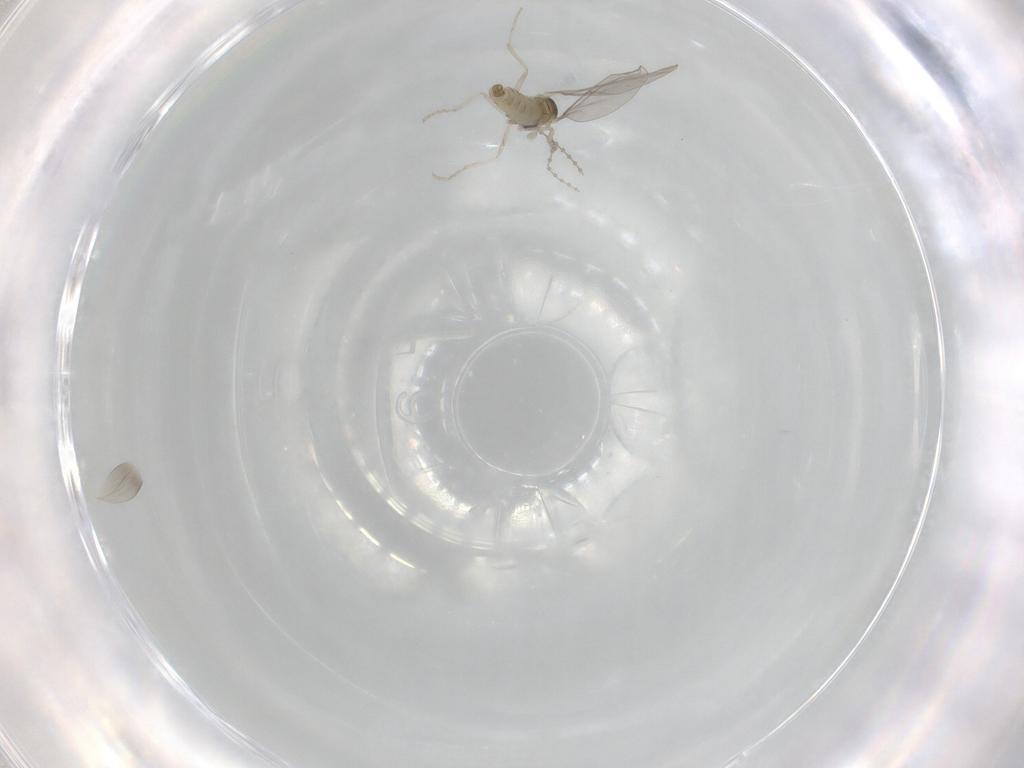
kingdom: Animalia
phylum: Arthropoda
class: Insecta
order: Diptera
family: Cecidomyiidae
